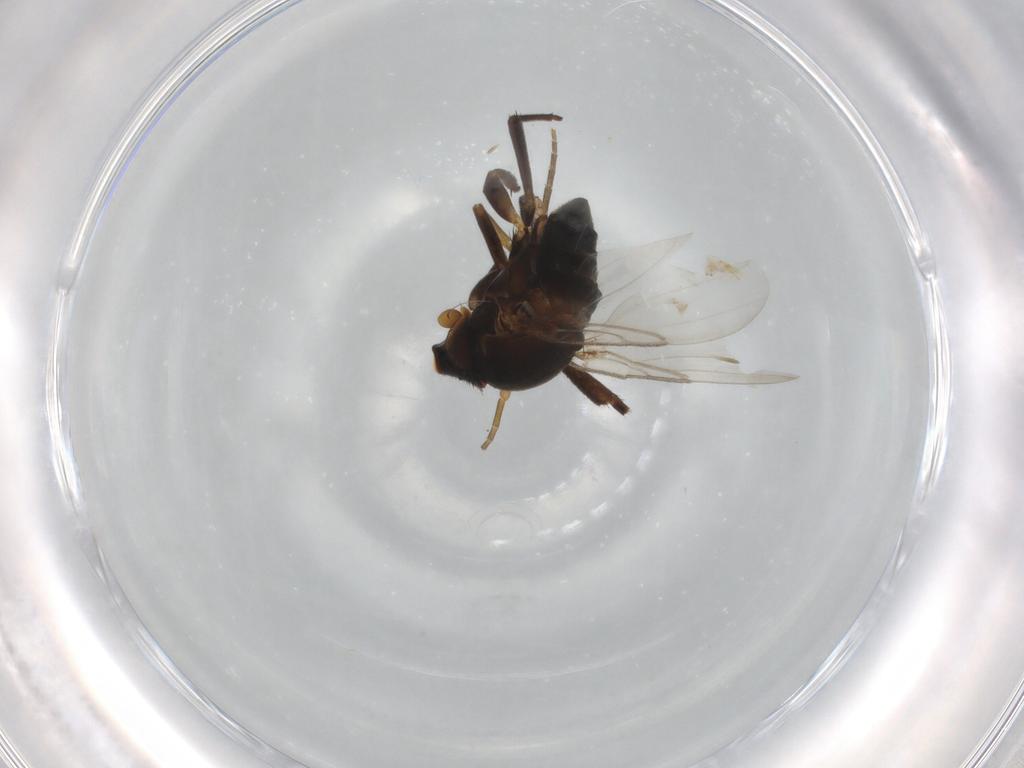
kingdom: Animalia
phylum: Arthropoda
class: Insecta
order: Diptera
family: Phoridae
